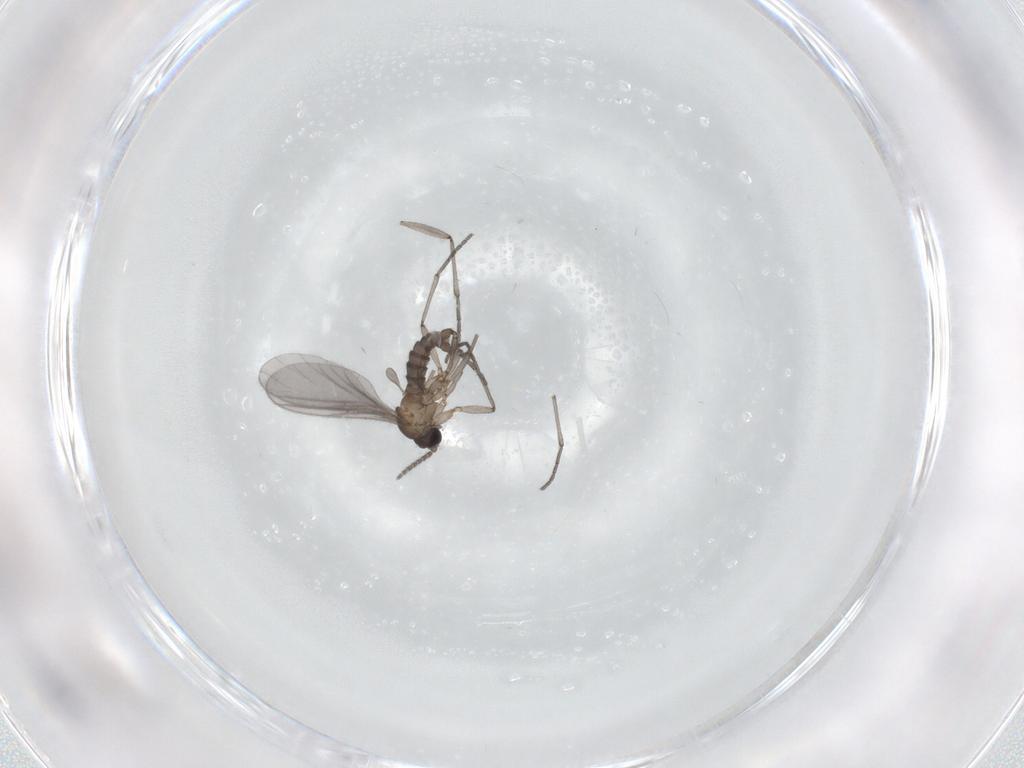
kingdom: Animalia
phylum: Arthropoda
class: Insecta
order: Diptera
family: Sciaridae
